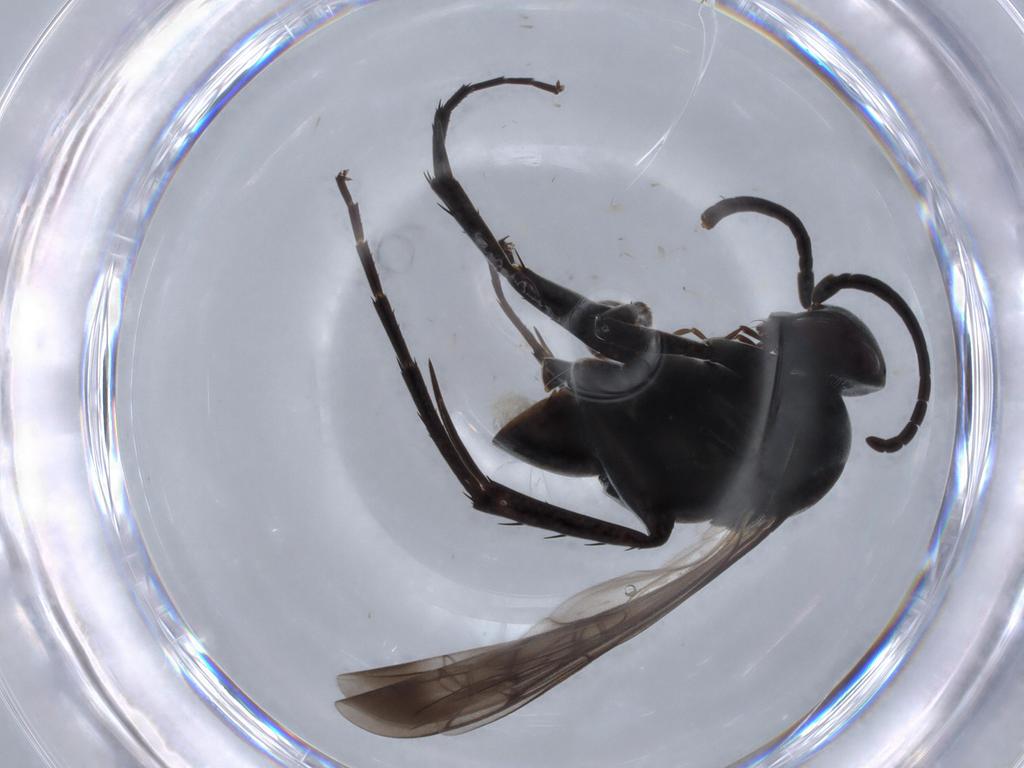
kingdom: Animalia
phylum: Arthropoda
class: Insecta
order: Hymenoptera
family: Pompilidae
